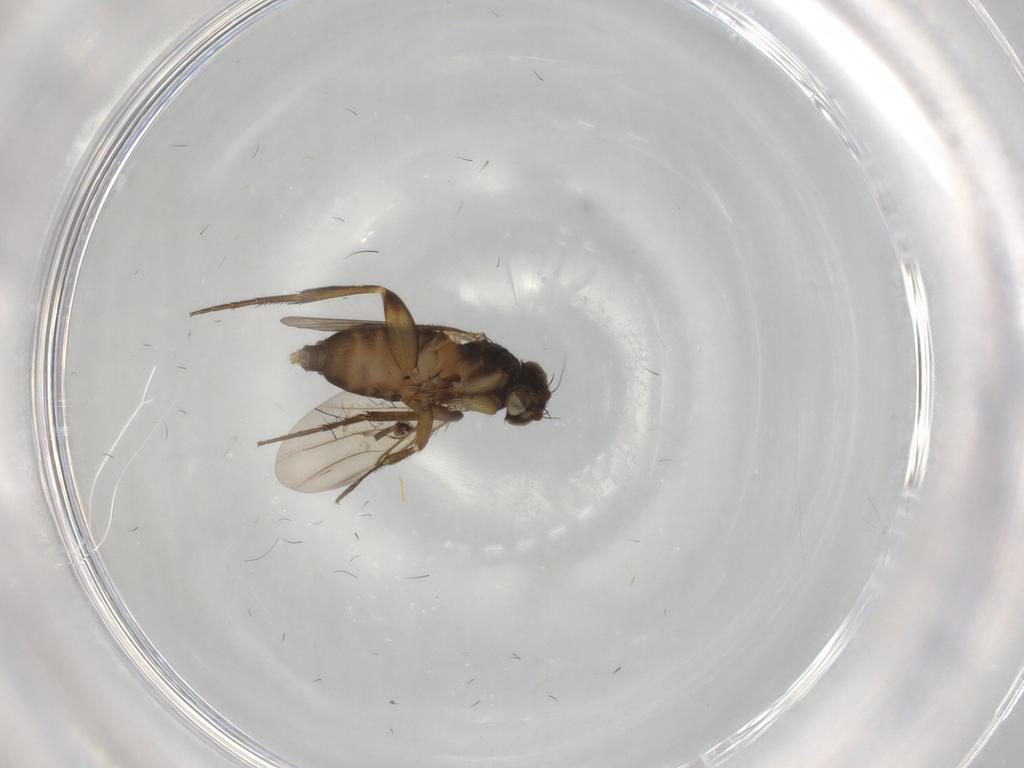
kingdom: Animalia
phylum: Arthropoda
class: Insecta
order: Diptera
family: Phoridae
